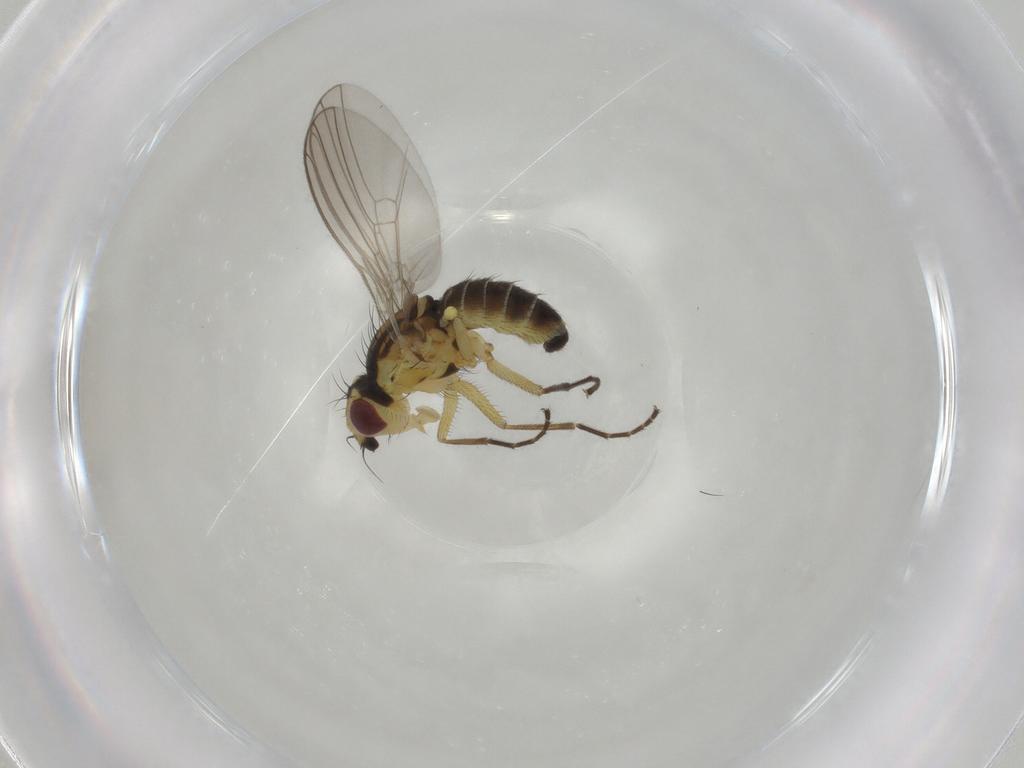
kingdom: Animalia
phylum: Arthropoda
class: Insecta
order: Diptera
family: Agromyzidae
